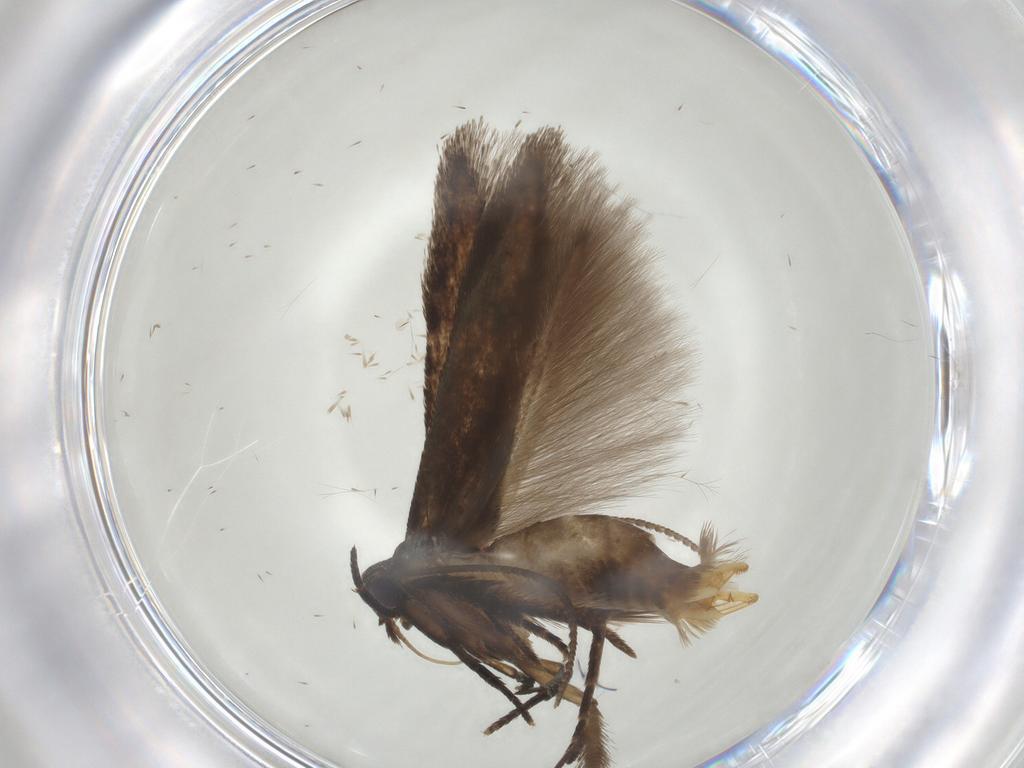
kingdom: Animalia
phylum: Arthropoda
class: Insecta
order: Lepidoptera
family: Cosmopterigidae
